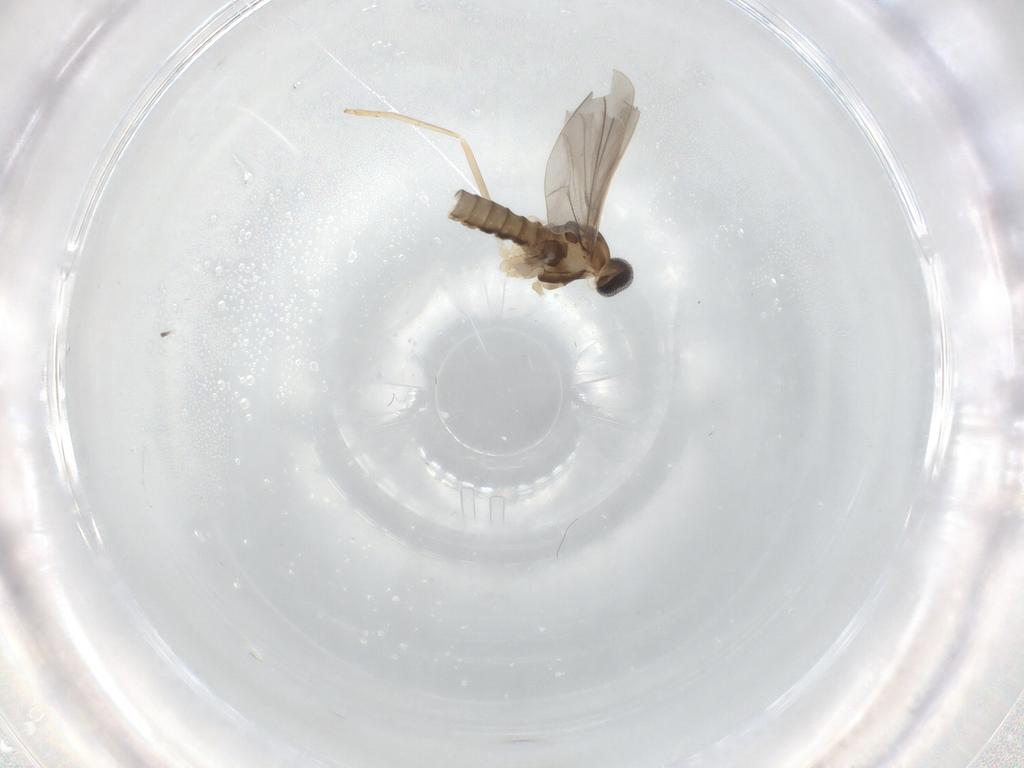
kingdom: Animalia
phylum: Arthropoda
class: Insecta
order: Diptera
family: Cecidomyiidae
